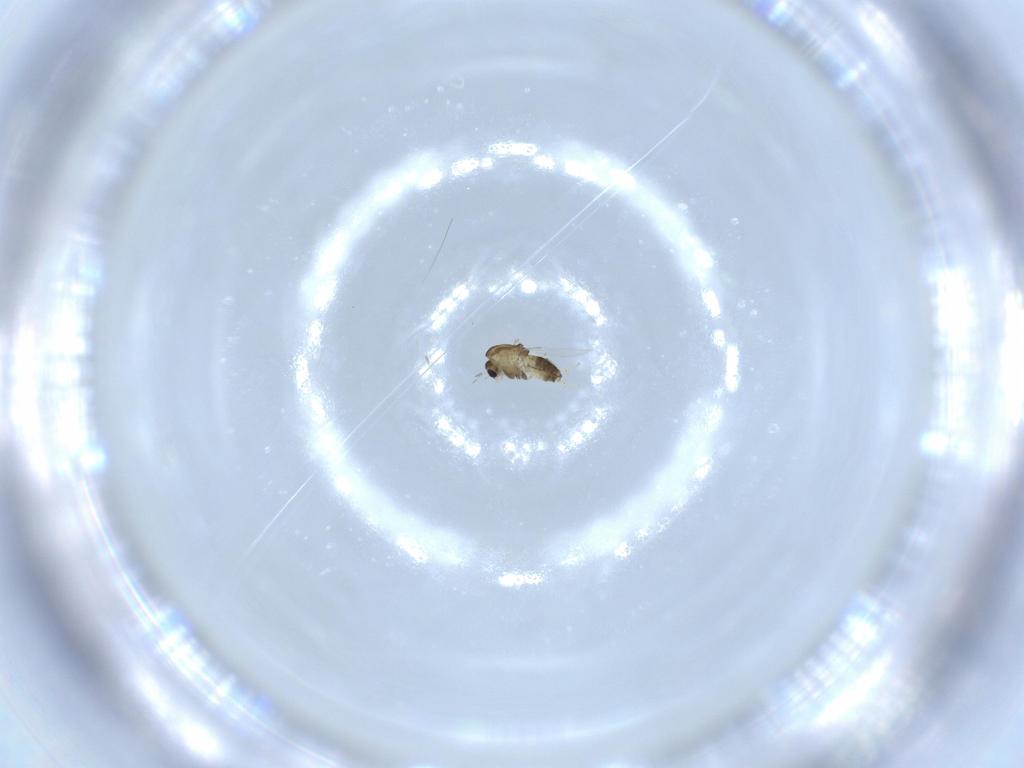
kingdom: Animalia
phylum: Arthropoda
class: Insecta
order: Diptera
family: Chironomidae
